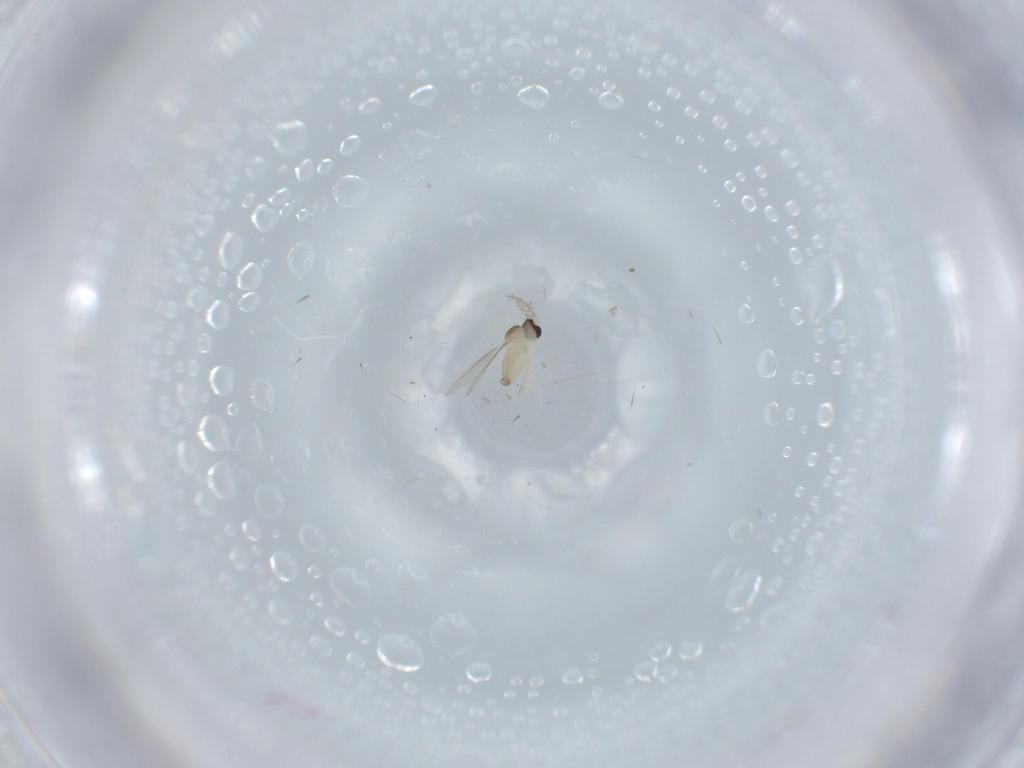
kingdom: Animalia
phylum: Arthropoda
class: Insecta
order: Diptera
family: Cecidomyiidae
